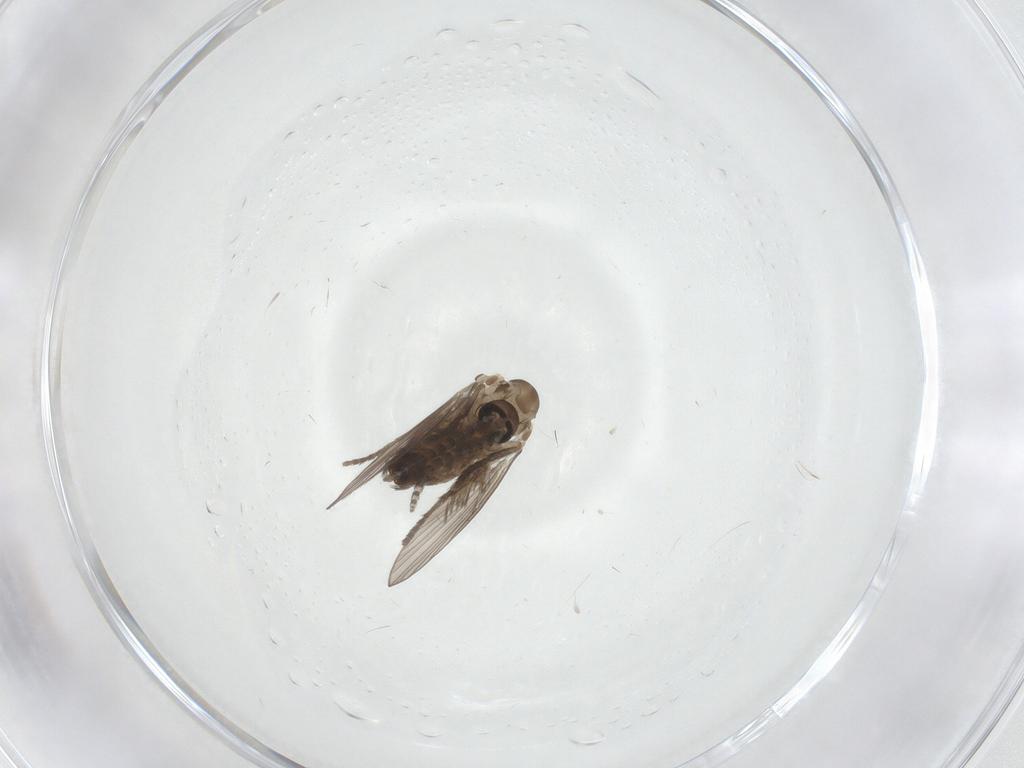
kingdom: Animalia
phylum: Arthropoda
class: Insecta
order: Diptera
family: Psychodidae
